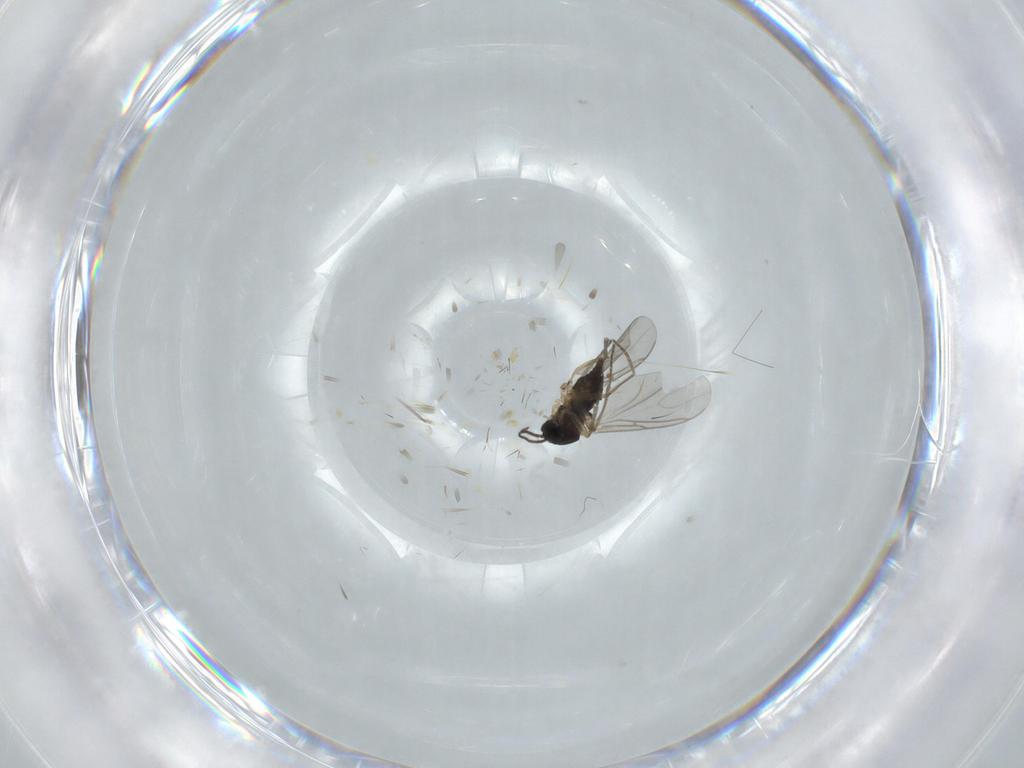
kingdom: Animalia
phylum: Arthropoda
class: Insecta
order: Diptera
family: Sciaridae
